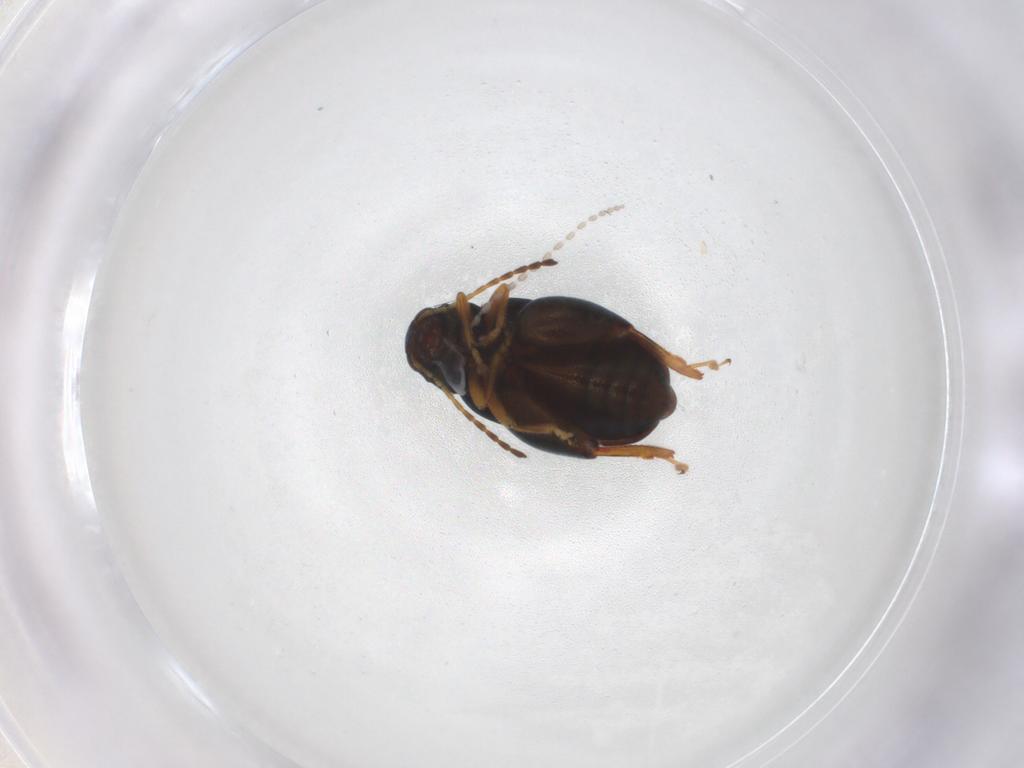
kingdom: Animalia
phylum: Arthropoda
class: Insecta
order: Coleoptera
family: Chrysomelidae
